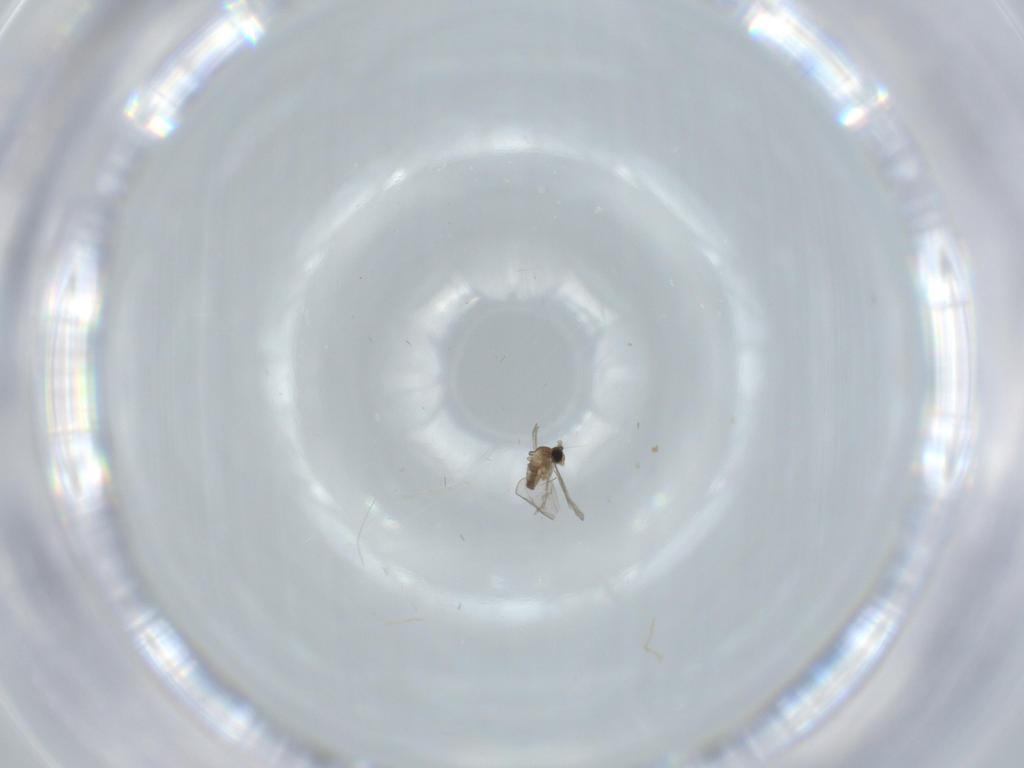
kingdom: Animalia
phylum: Arthropoda
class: Insecta
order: Diptera
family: Cecidomyiidae
